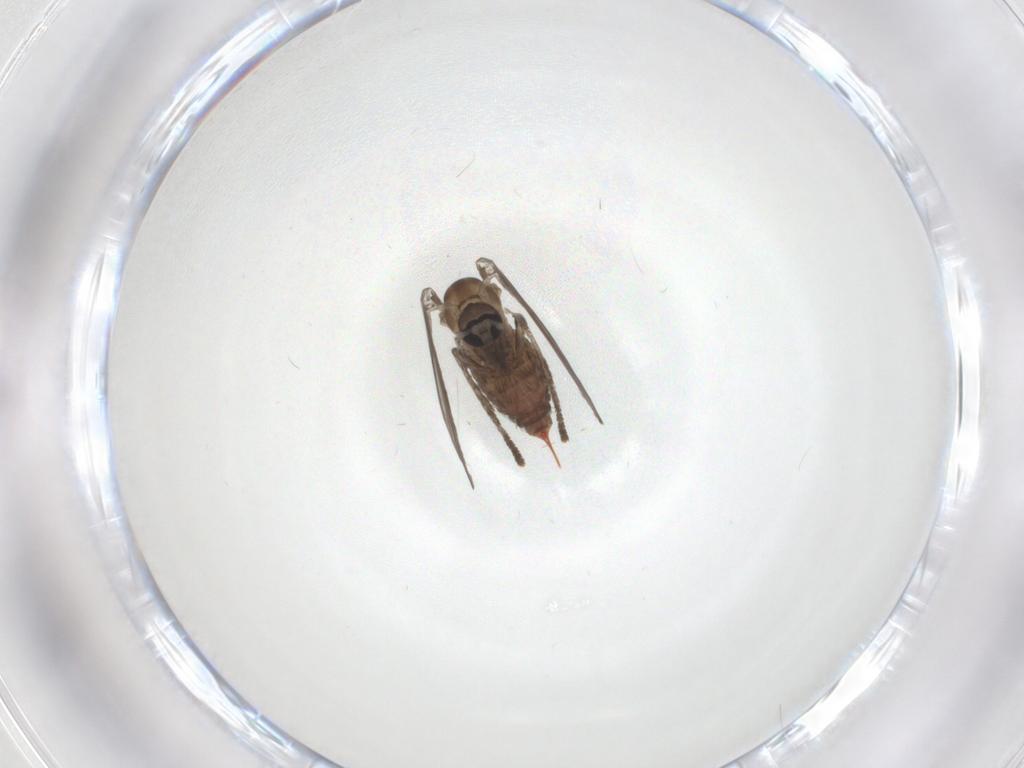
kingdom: Animalia
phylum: Arthropoda
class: Insecta
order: Diptera
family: Psychodidae
